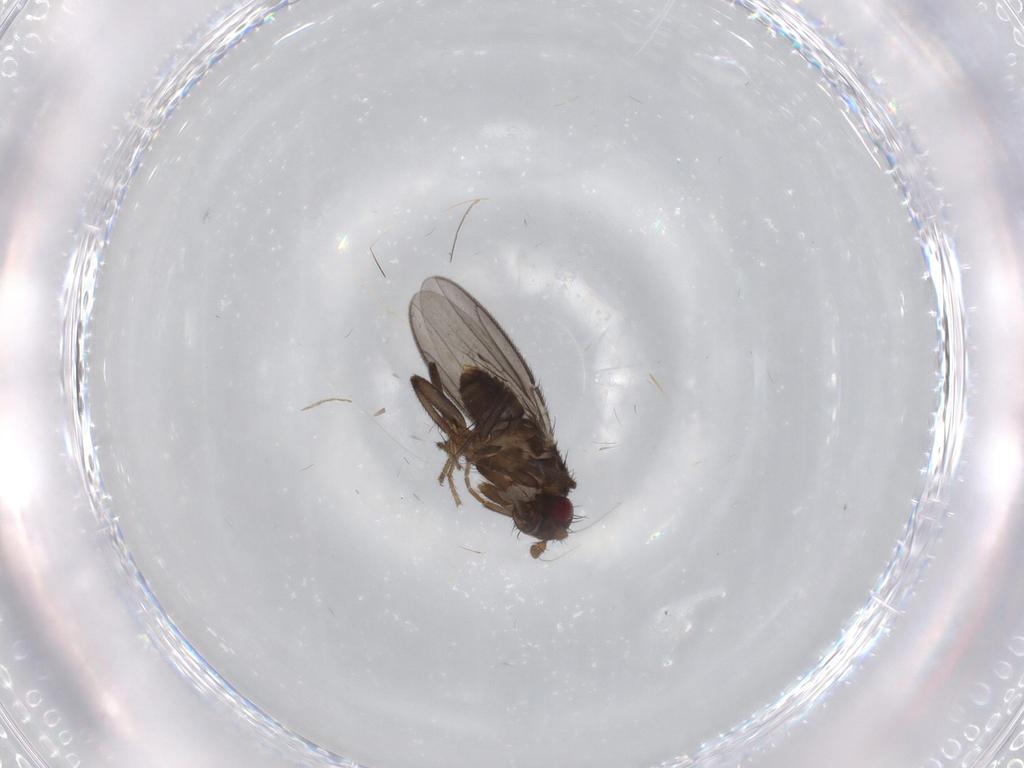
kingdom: Animalia
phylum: Arthropoda
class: Insecta
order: Diptera
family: Sphaeroceridae
